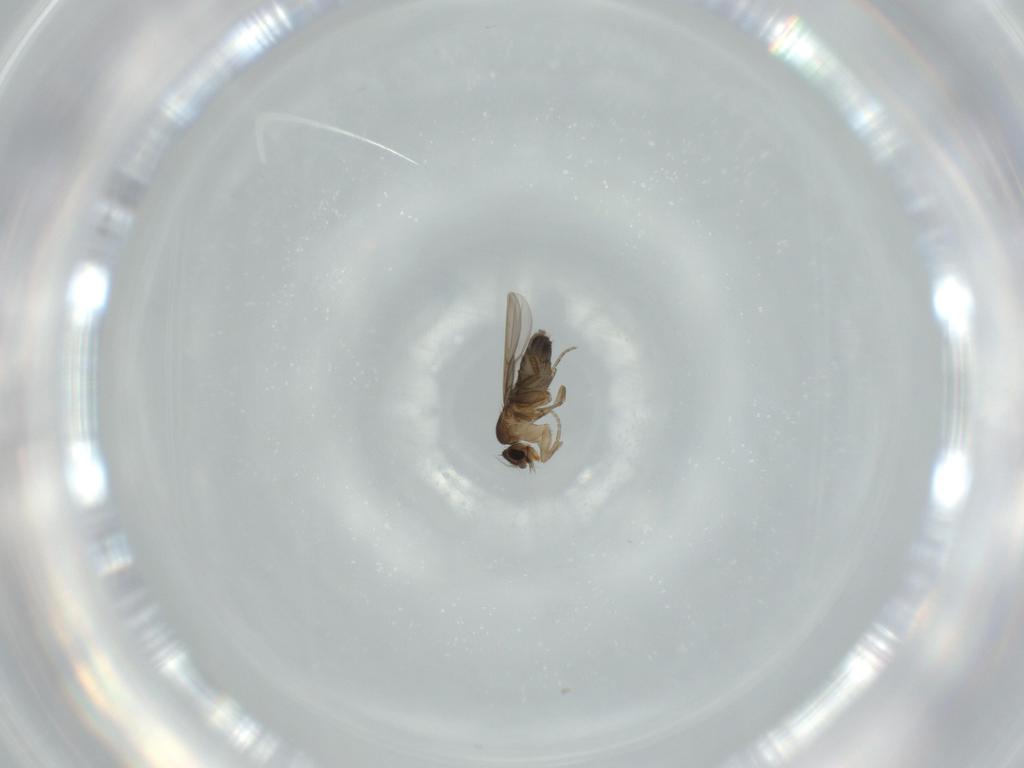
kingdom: Animalia
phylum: Arthropoda
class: Insecta
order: Diptera
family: Phoridae
